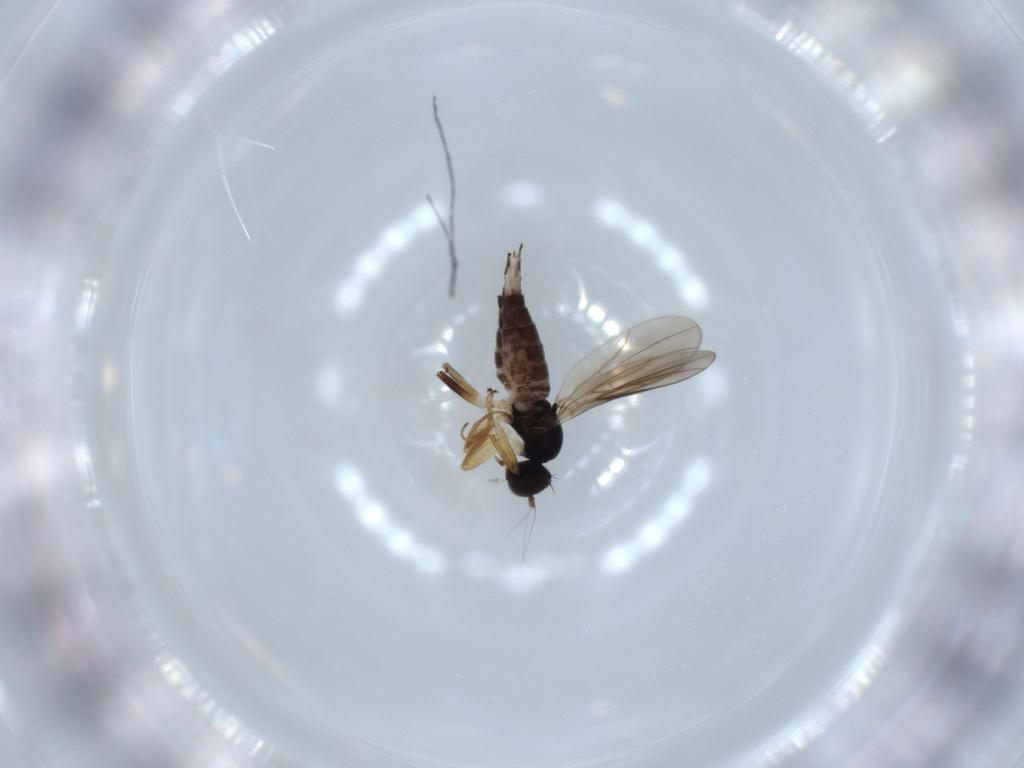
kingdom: Animalia
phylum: Arthropoda
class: Insecta
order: Diptera
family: Hybotidae
